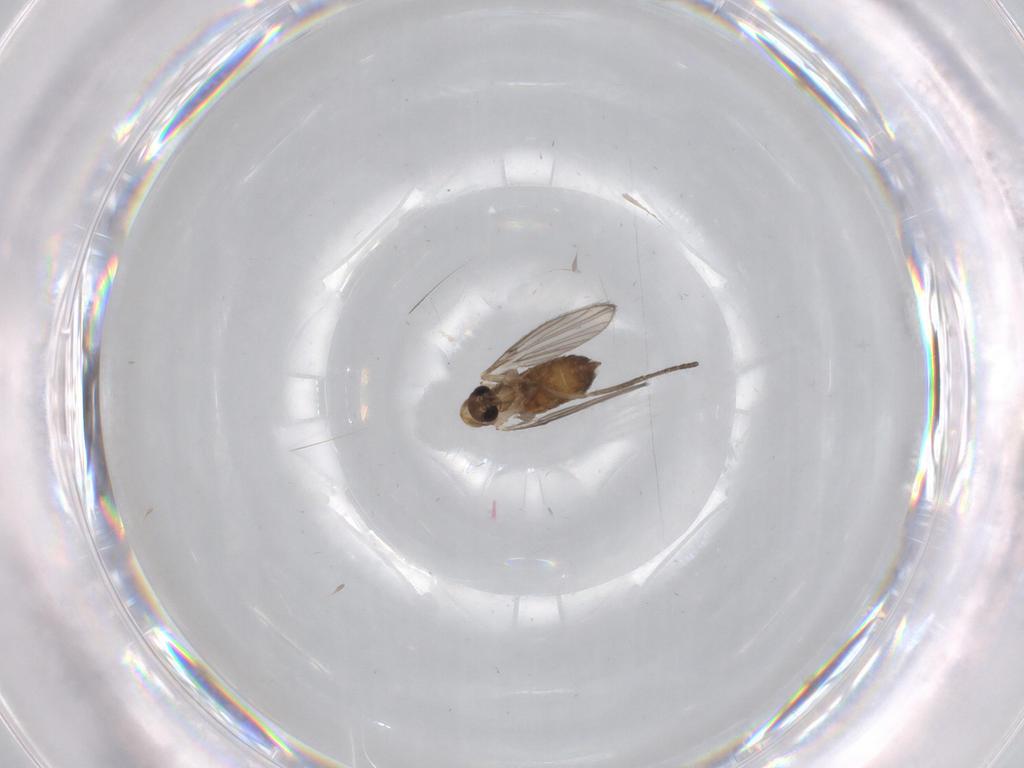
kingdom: Animalia
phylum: Arthropoda
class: Insecta
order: Diptera
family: Psychodidae
